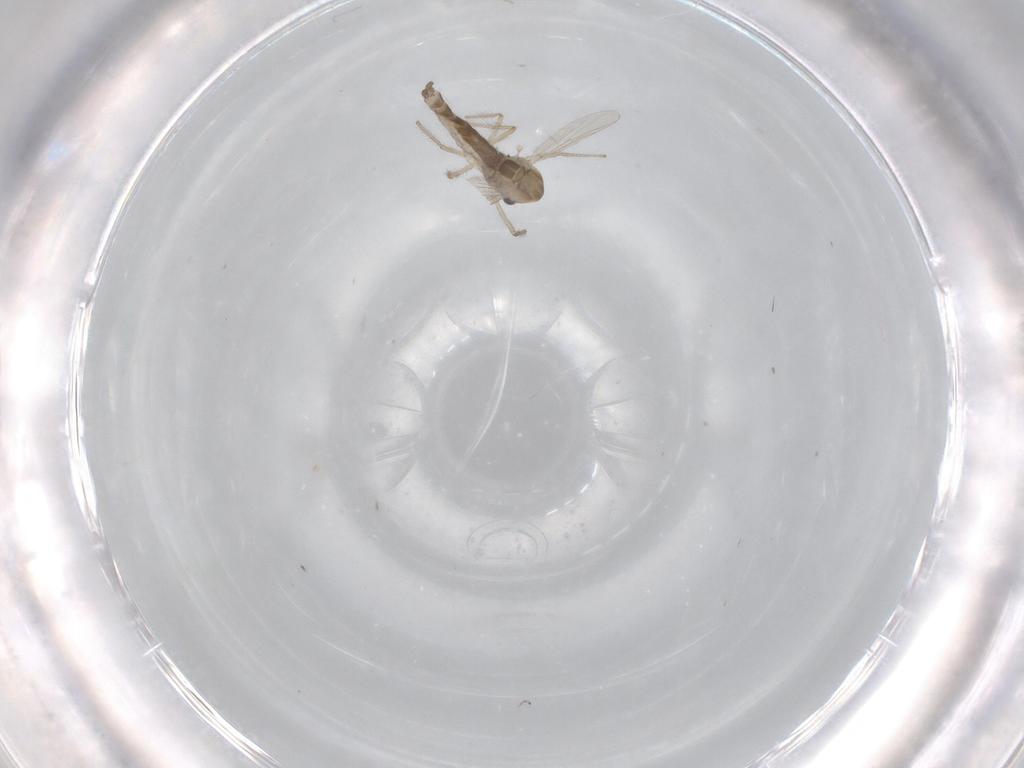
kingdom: Animalia
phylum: Arthropoda
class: Insecta
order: Diptera
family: Chironomidae
